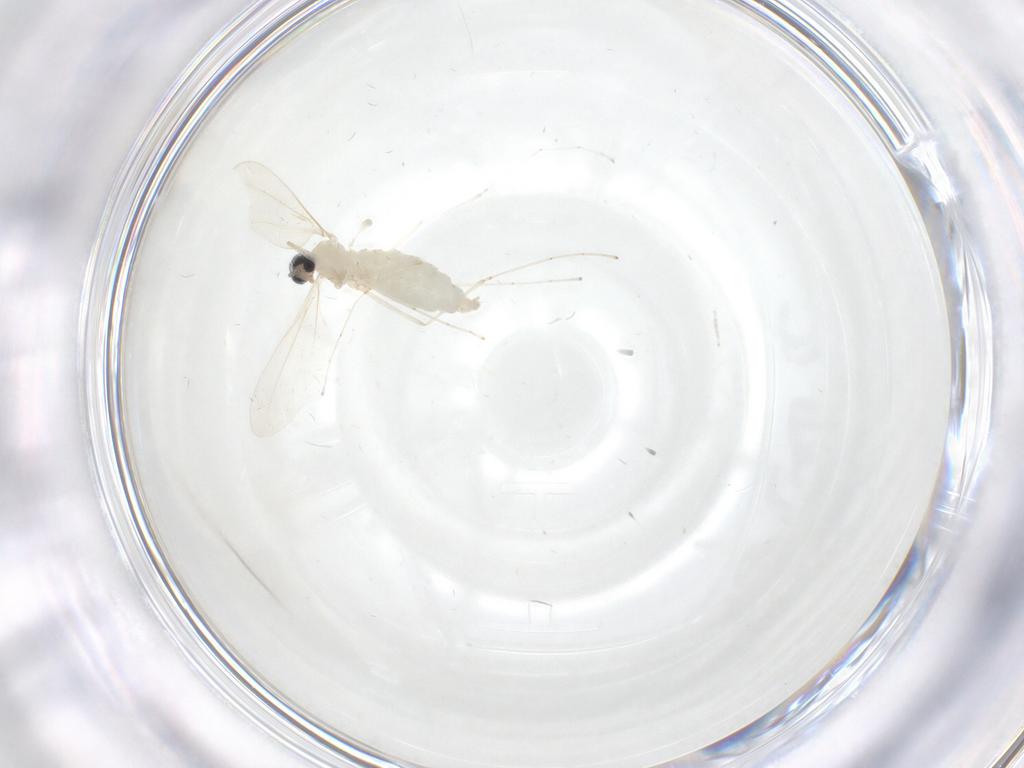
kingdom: Animalia
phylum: Arthropoda
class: Insecta
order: Diptera
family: Cecidomyiidae
